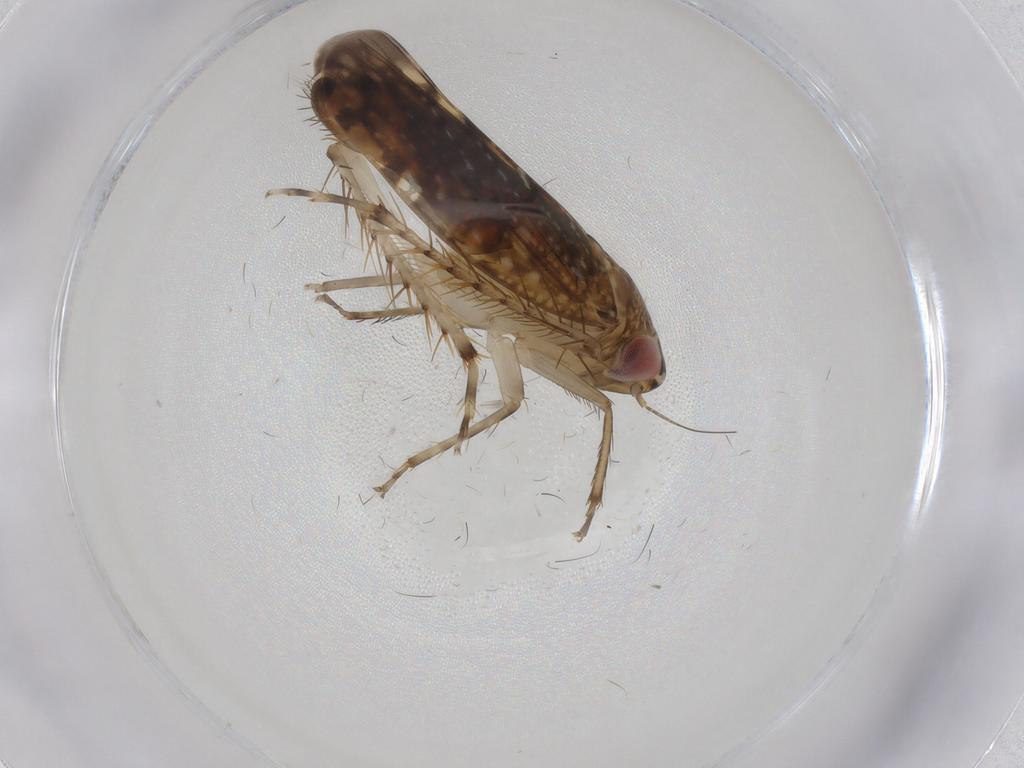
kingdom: Animalia
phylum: Arthropoda
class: Insecta
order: Hemiptera
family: Cicadellidae
